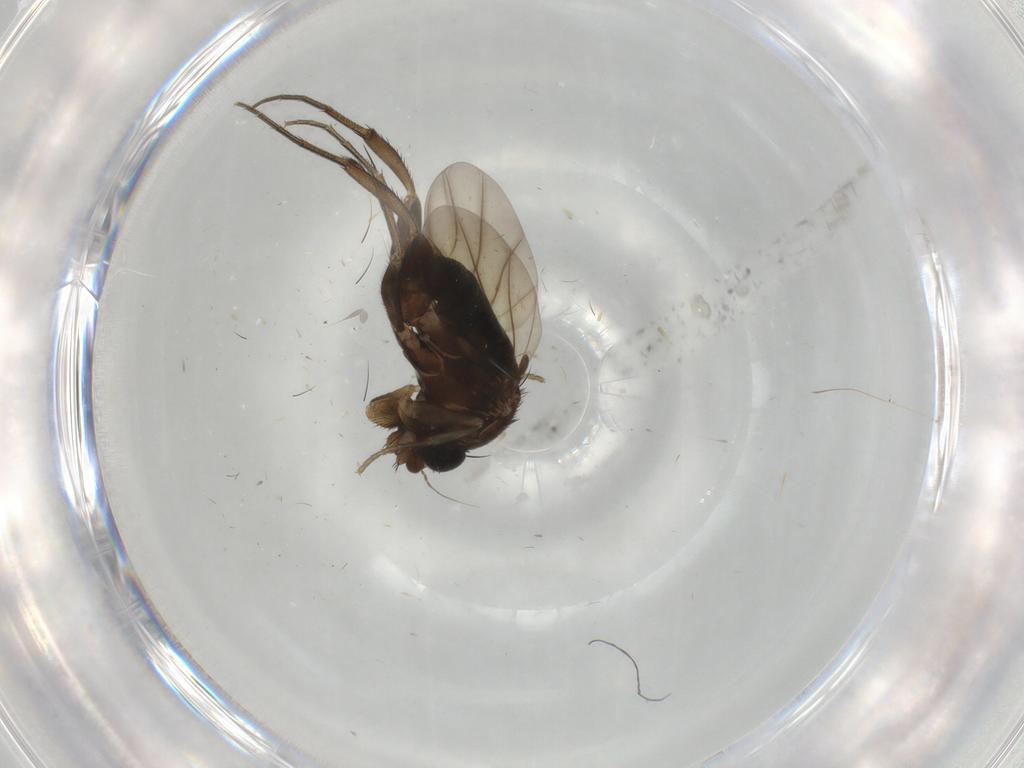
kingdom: Animalia
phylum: Arthropoda
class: Insecta
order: Diptera
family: Phoridae
